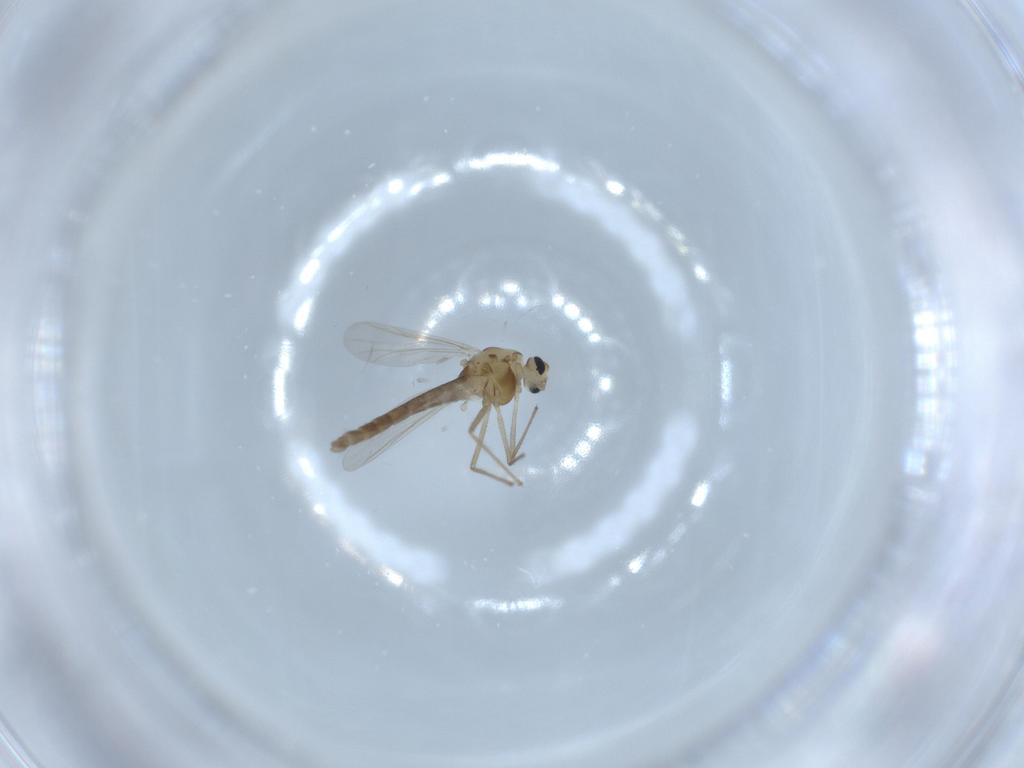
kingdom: Animalia
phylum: Arthropoda
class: Insecta
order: Diptera
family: Chironomidae
